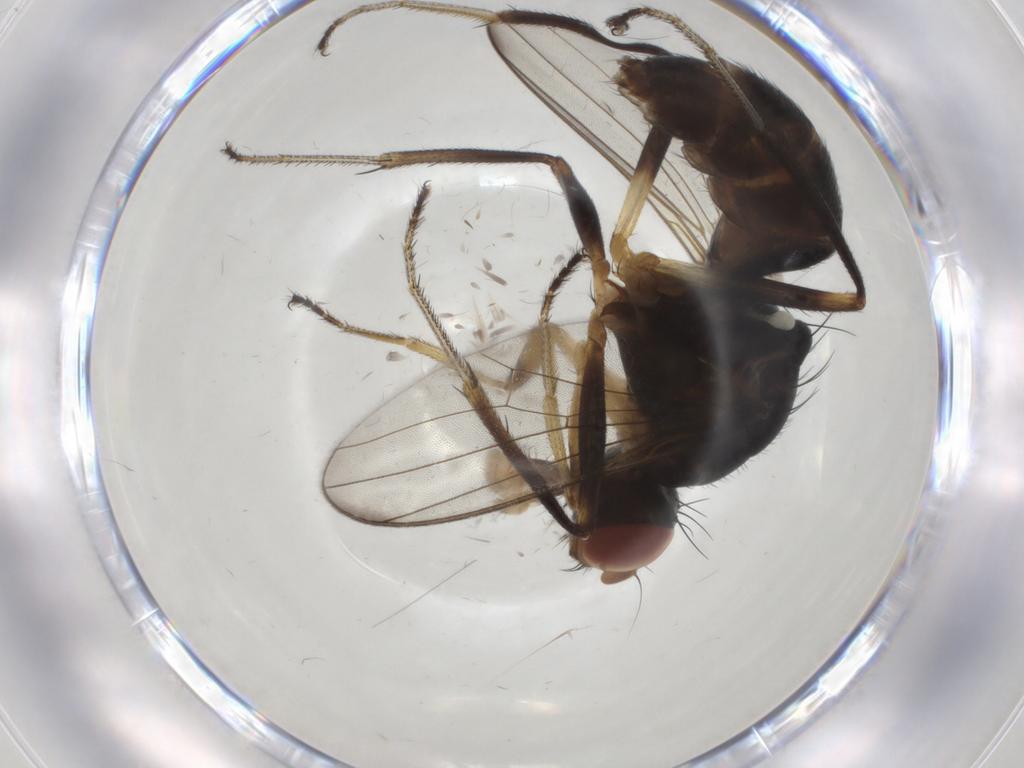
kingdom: Animalia
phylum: Arthropoda
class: Insecta
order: Diptera
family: Sepsidae
